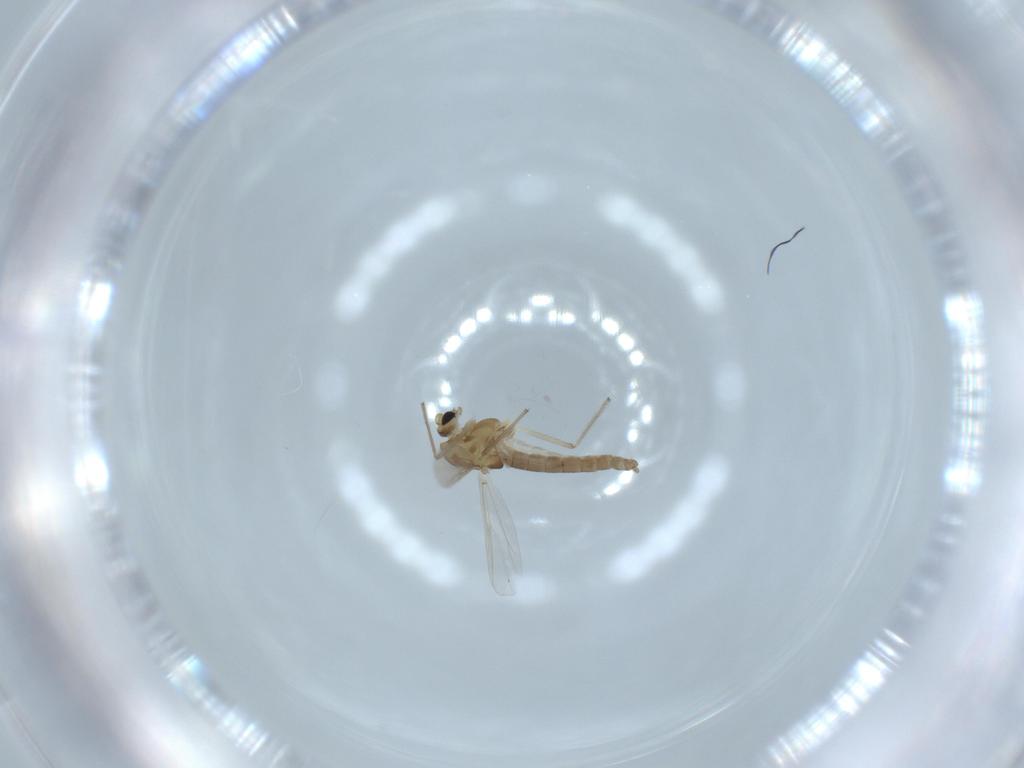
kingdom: Animalia
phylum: Arthropoda
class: Insecta
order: Diptera
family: Chironomidae
